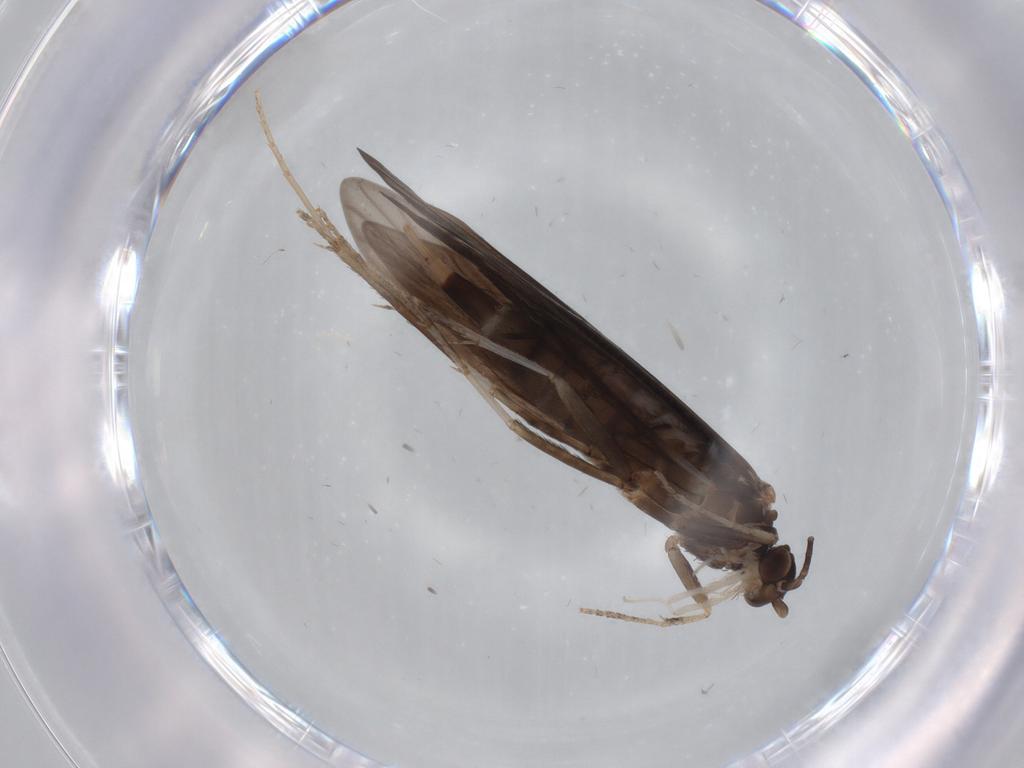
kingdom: Animalia
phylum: Arthropoda
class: Insecta
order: Trichoptera
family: Xiphocentronidae
